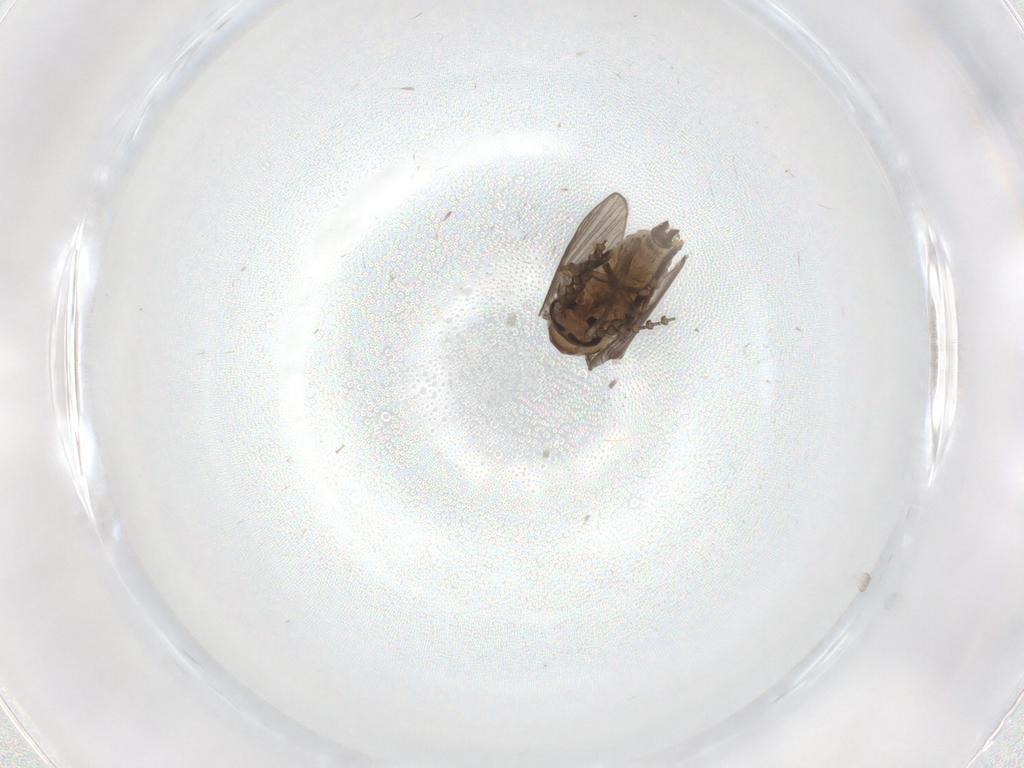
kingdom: Animalia
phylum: Arthropoda
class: Insecta
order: Diptera
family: Psychodidae
